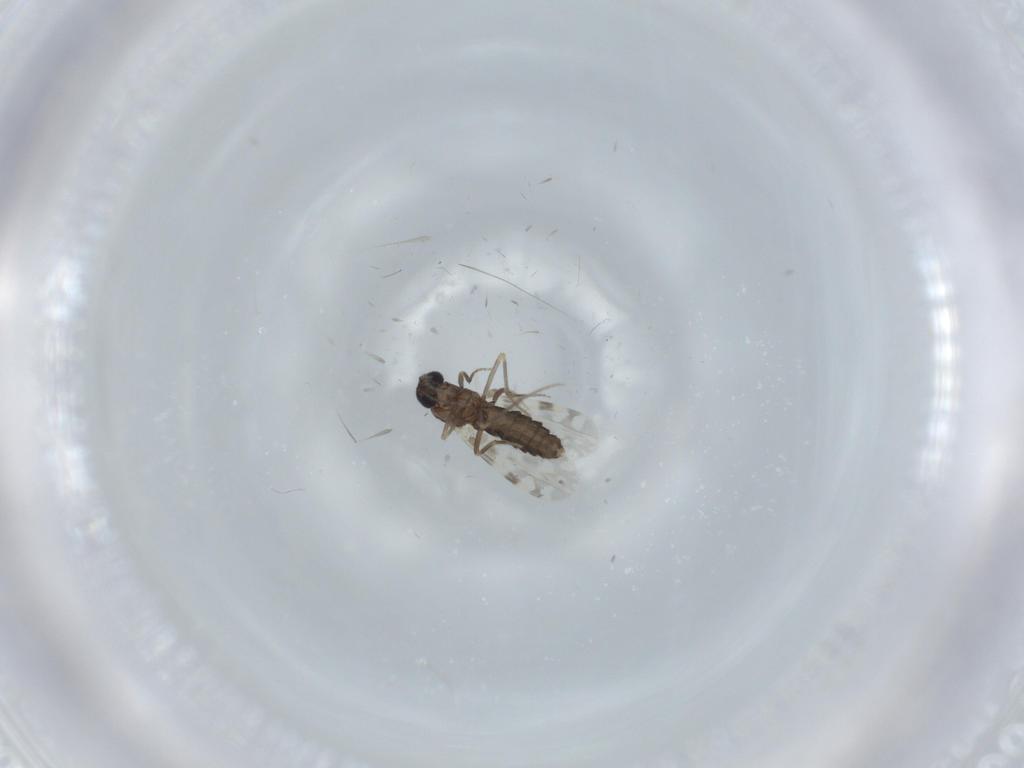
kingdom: Animalia
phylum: Arthropoda
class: Insecta
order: Diptera
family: Ceratopogonidae
